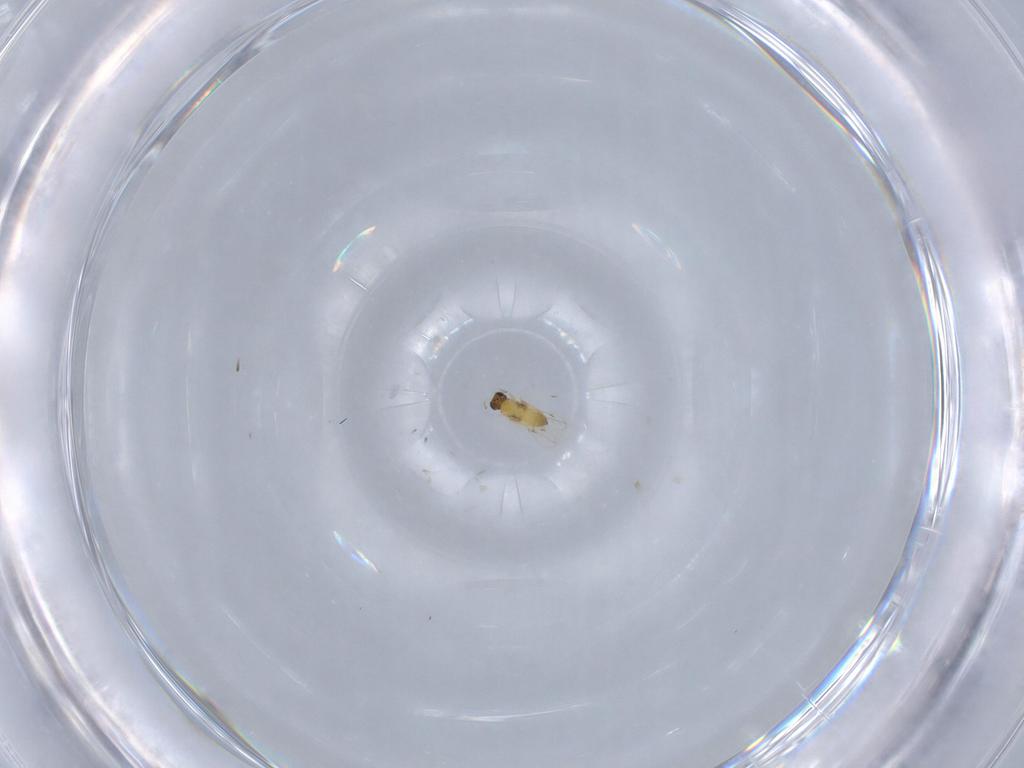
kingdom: Animalia
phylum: Arthropoda
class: Insecta
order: Hymenoptera
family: Trichogrammatidae
